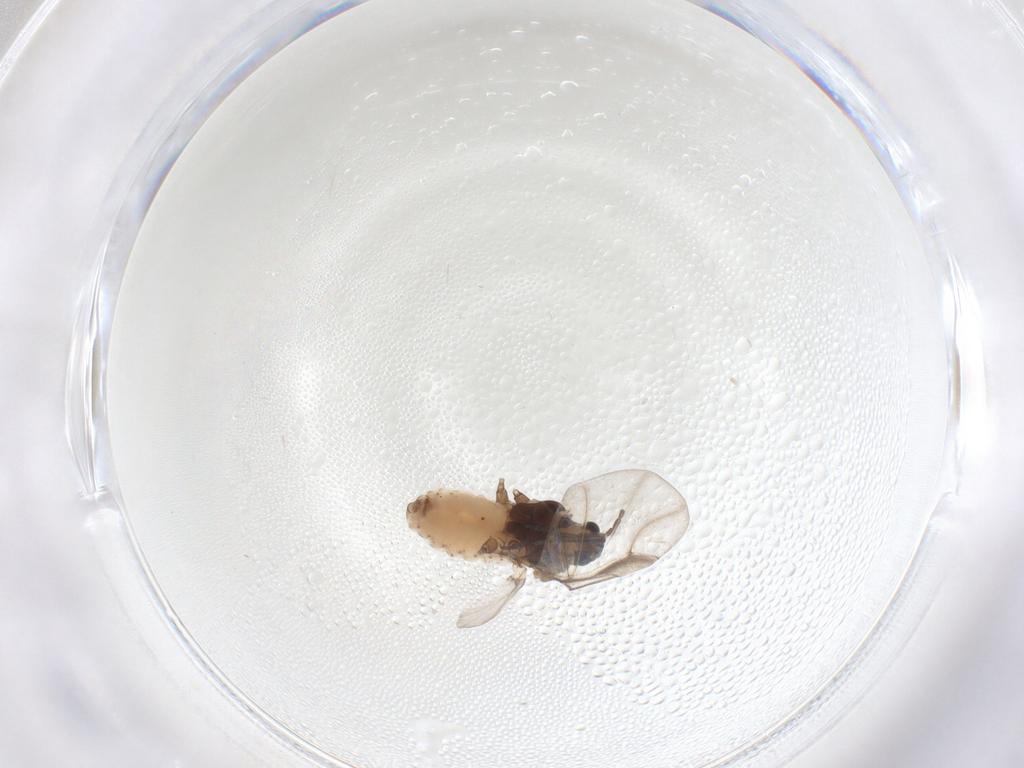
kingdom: Animalia
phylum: Arthropoda
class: Insecta
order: Hemiptera
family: Aphididae
